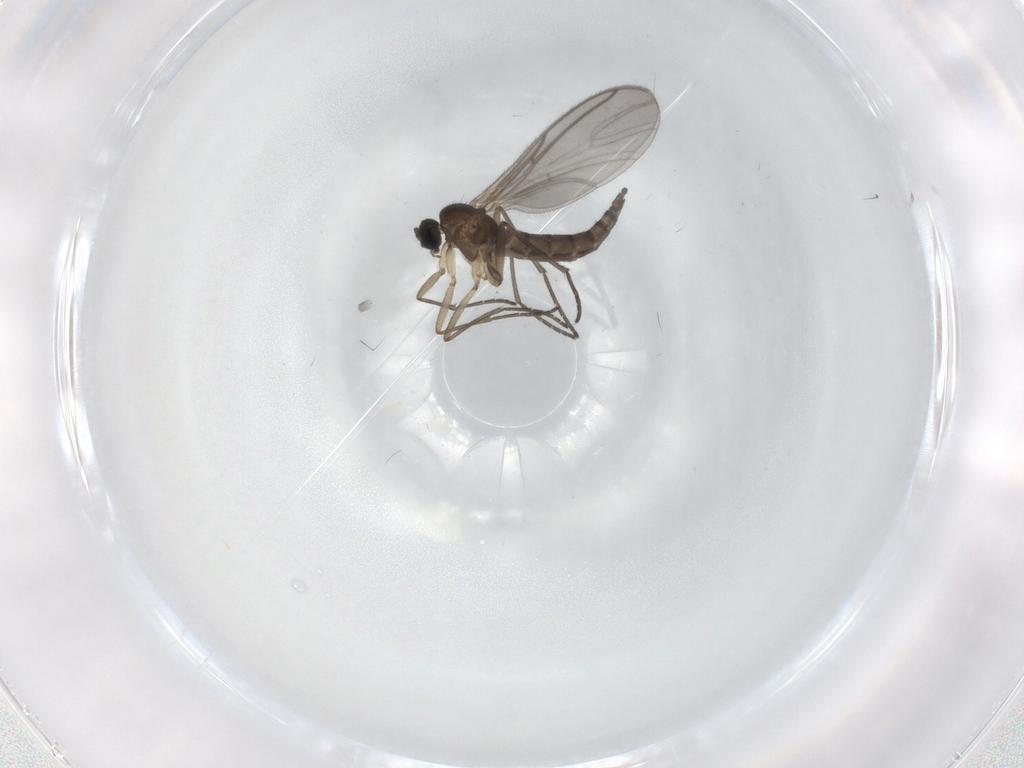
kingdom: Animalia
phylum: Arthropoda
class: Insecta
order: Diptera
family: Sciaridae
